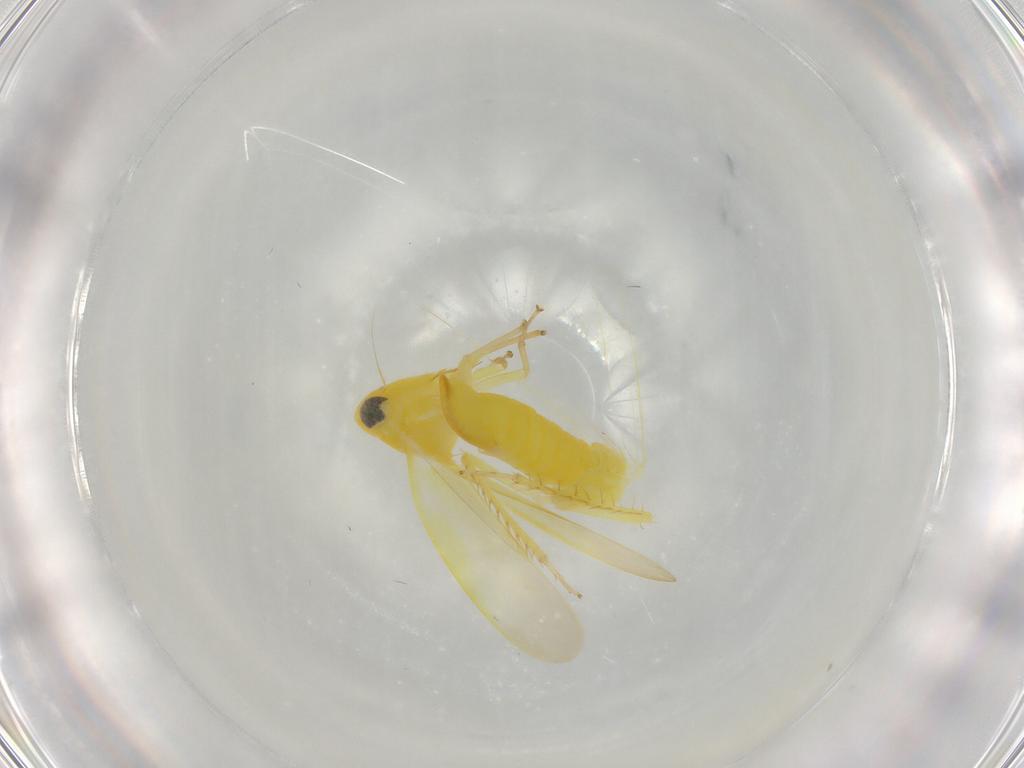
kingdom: Animalia
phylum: Arthropoda
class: Insecta
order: Hemiptera
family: Cicadellidae
